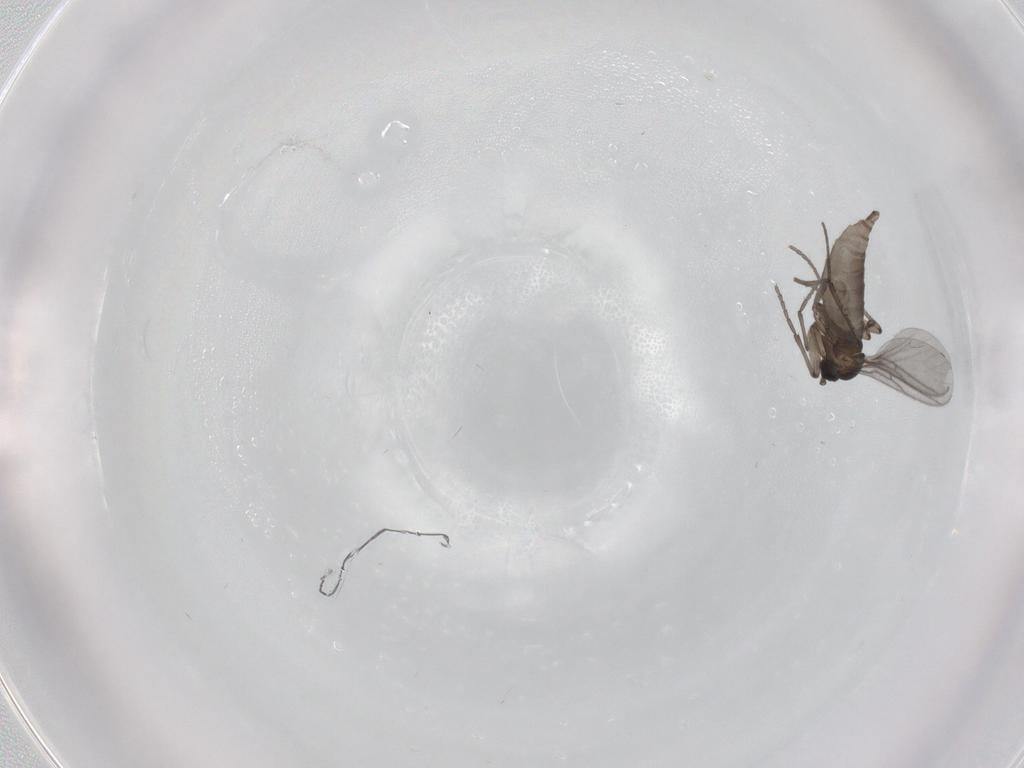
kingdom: Animalia
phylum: Arthropoda
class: Insecta
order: Diptera
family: Sciaridae
